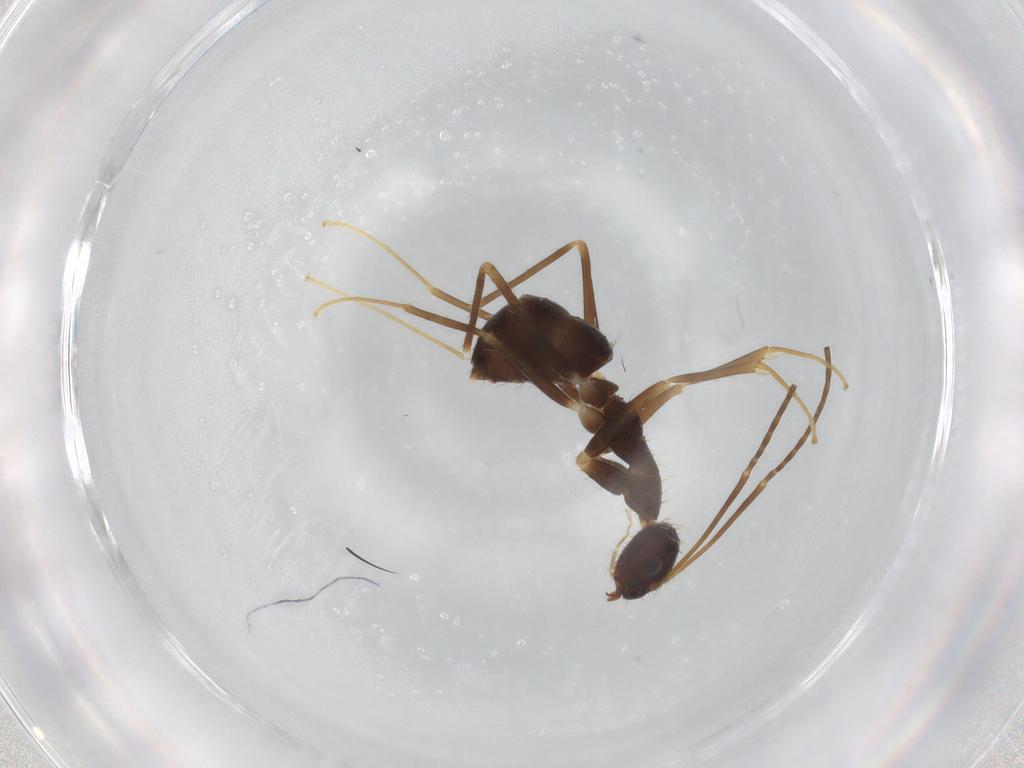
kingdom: Animalia
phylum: Arthropoda
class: Insecta
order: Hymenoptera
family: Formicidae
